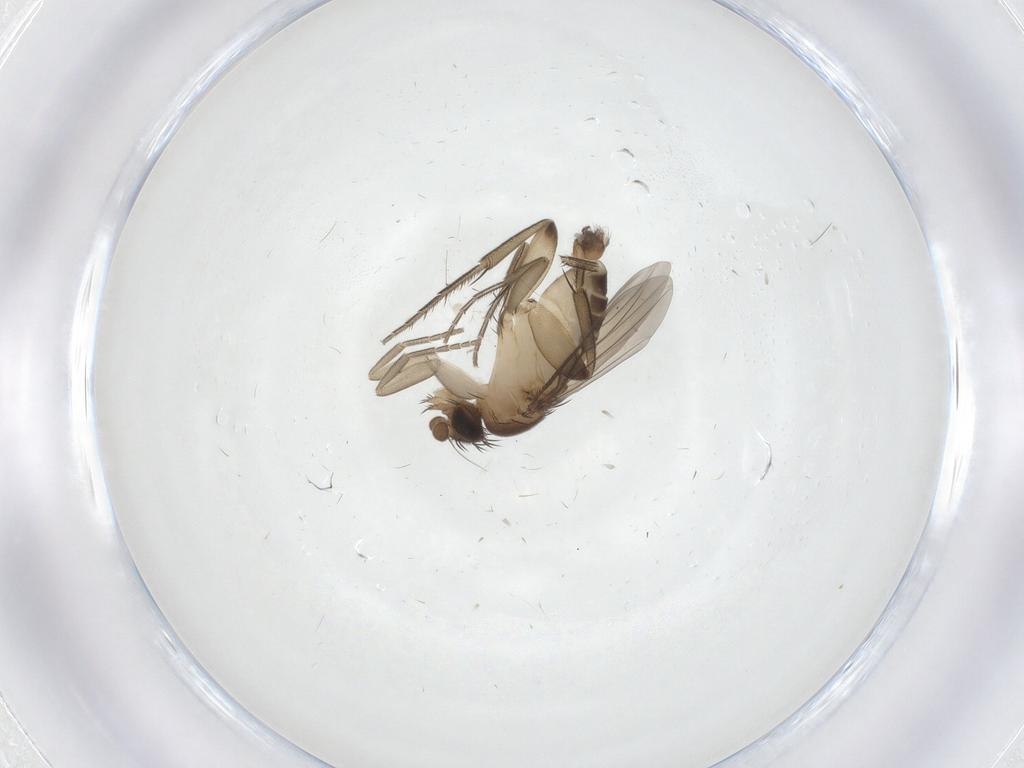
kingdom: Animalia
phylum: Arthropoda
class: Insecta
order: Diptera
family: Phoridae
